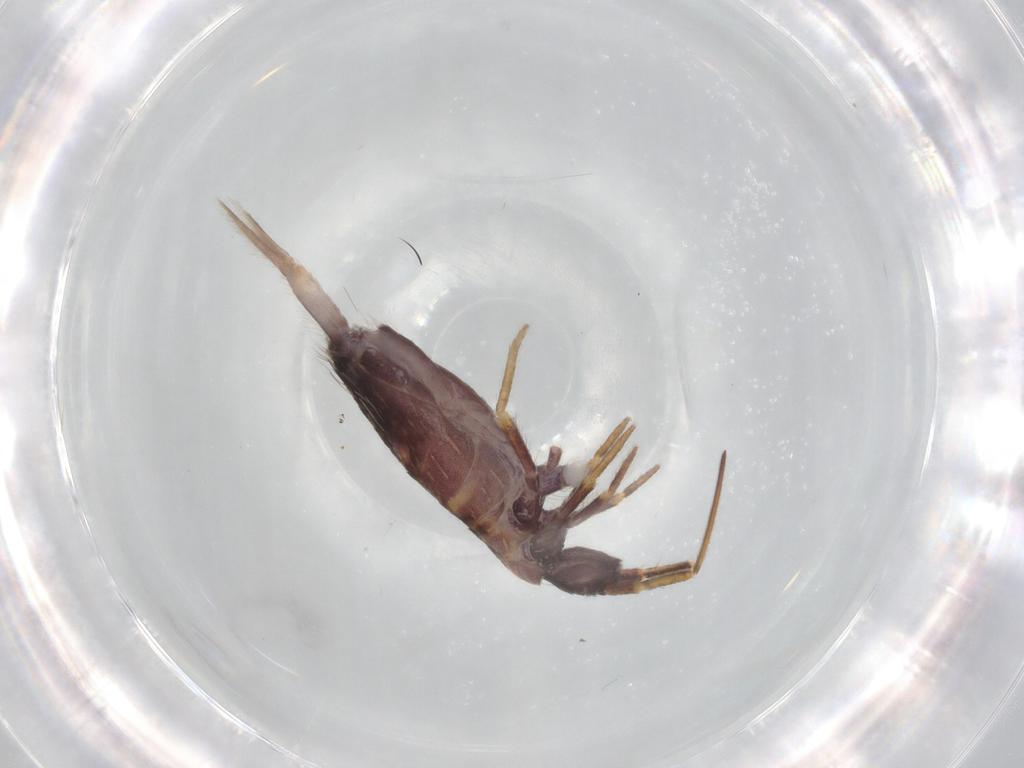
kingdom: Animalia
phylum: Arthropoda
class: Collembola
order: Entomobryomorpha
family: Entomobryidae
